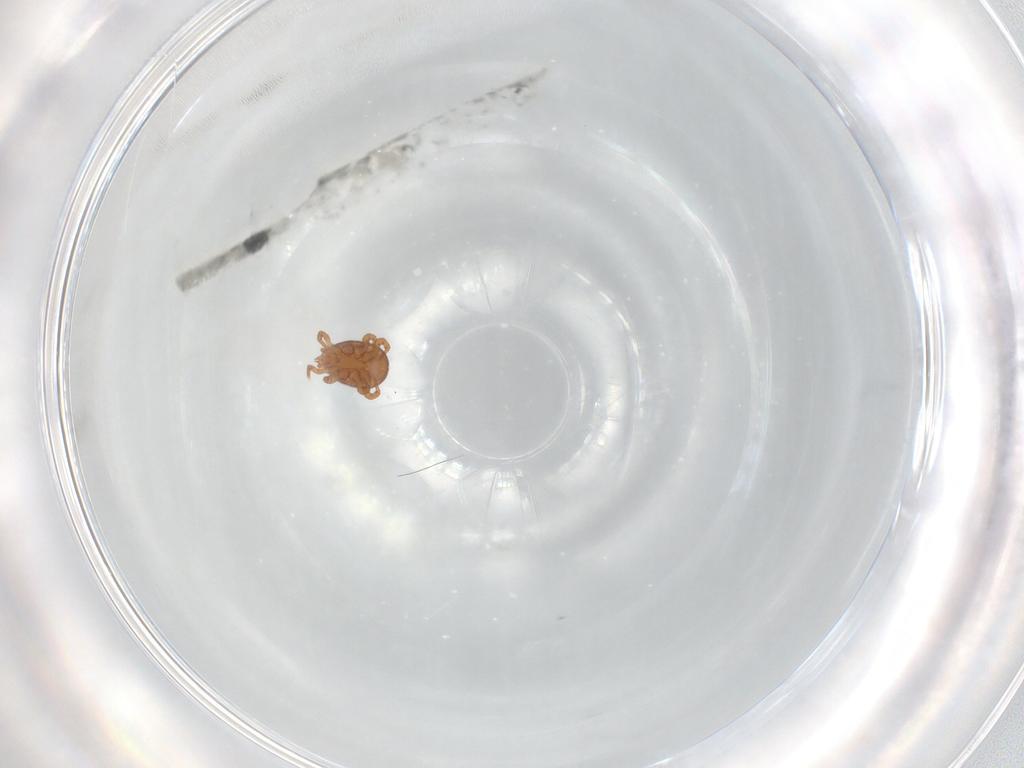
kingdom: Animalia
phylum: Arthropoda
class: Arachnida
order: Mesostigmata
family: Eviphididae
